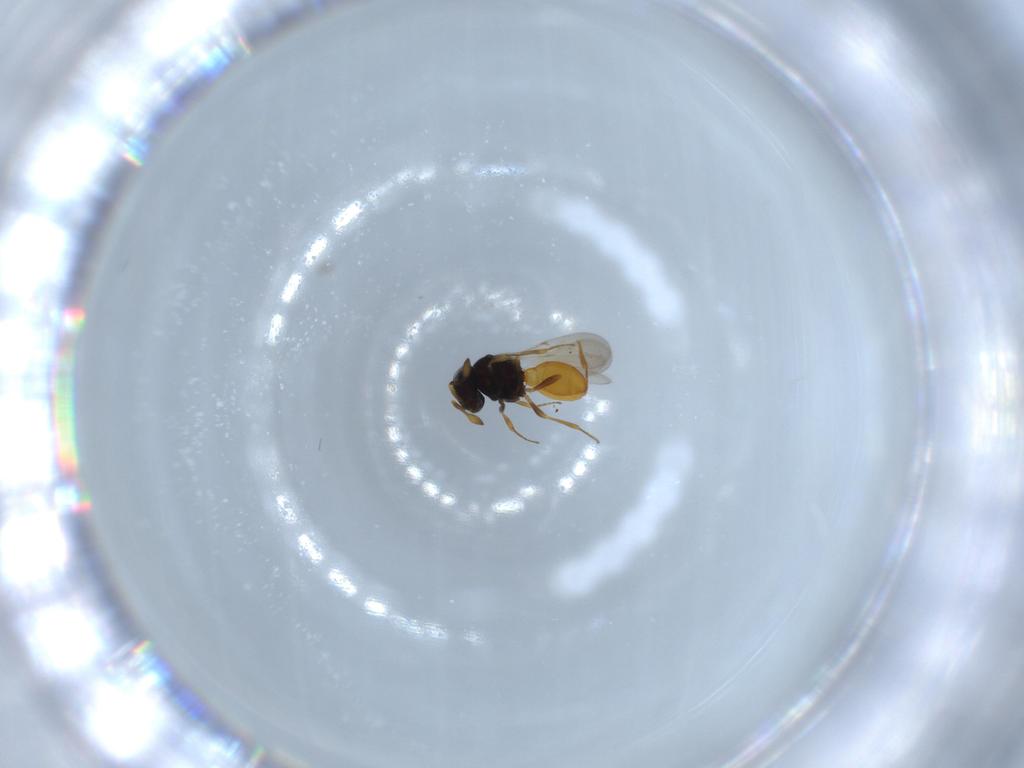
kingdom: Animalia
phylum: Arthropoda
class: Insecta
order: Hymenoptera
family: Scelionidae
